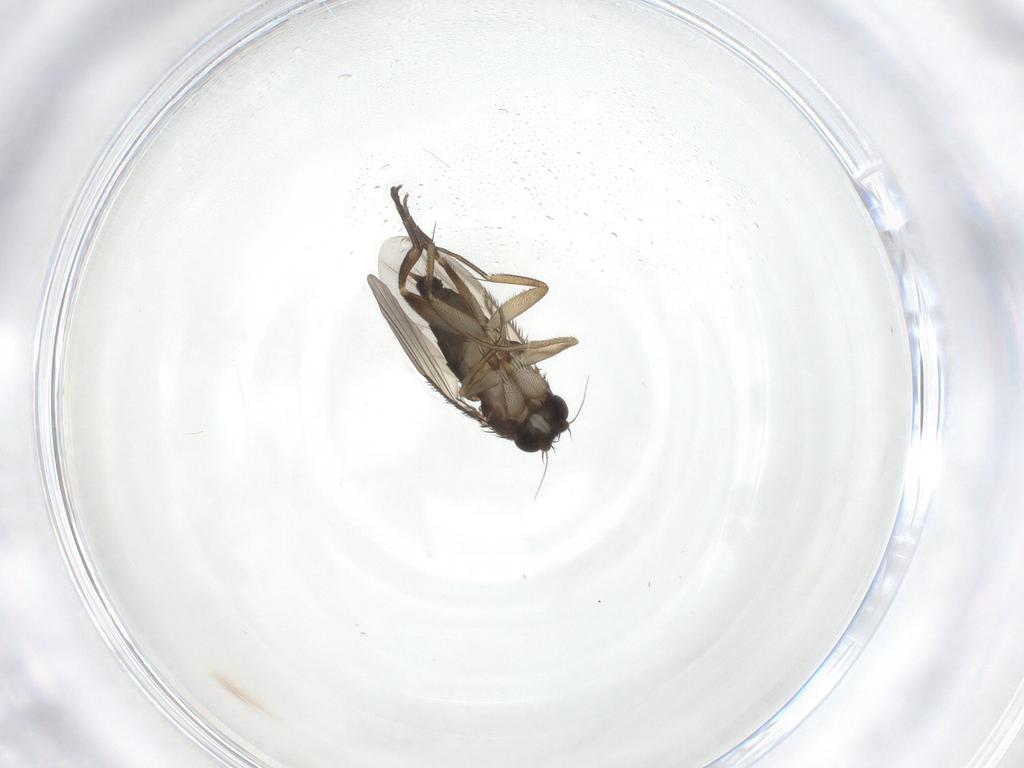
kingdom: Animalia
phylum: Arthropoda
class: Insecta
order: Diptera
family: Phoridae
